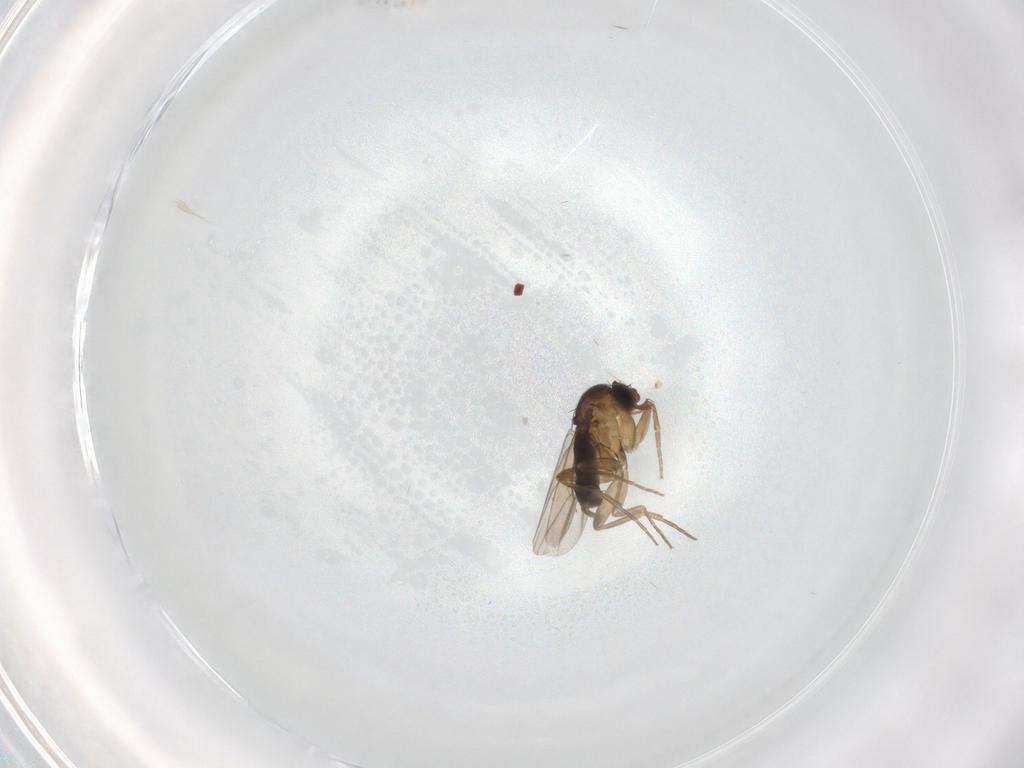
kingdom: Animalia
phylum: Arthropoda
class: Insecta
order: Diptera
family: Phoridae
